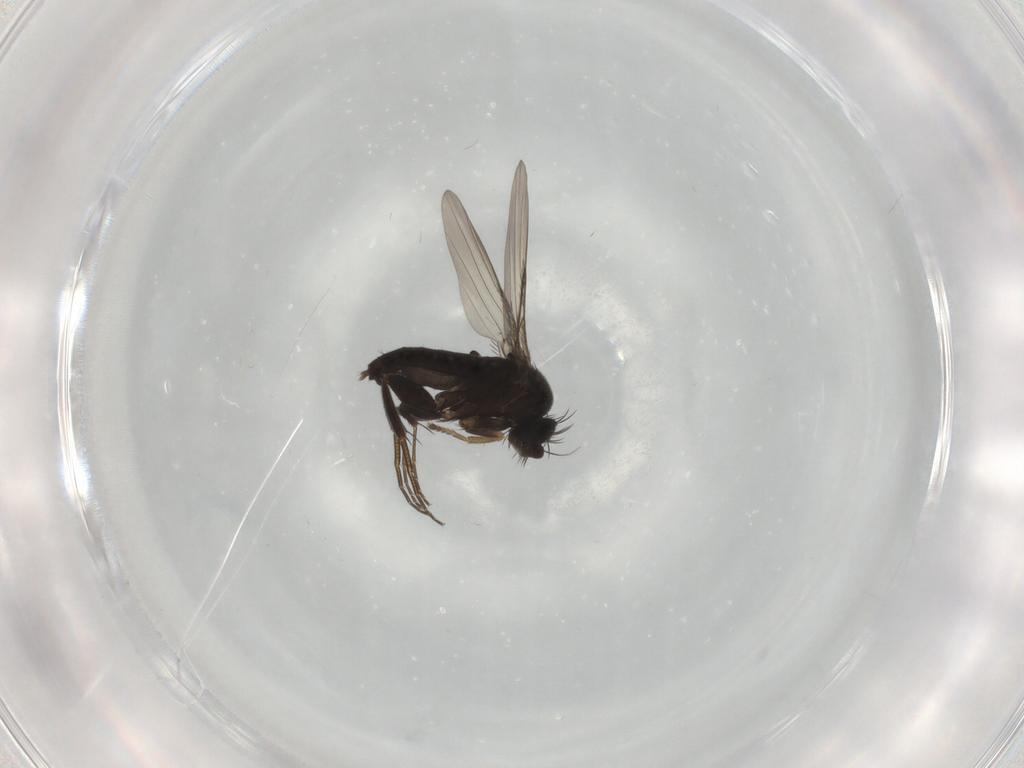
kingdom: Animalia
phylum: Arthropoda
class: Insecta
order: Diptera
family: Phoridae
